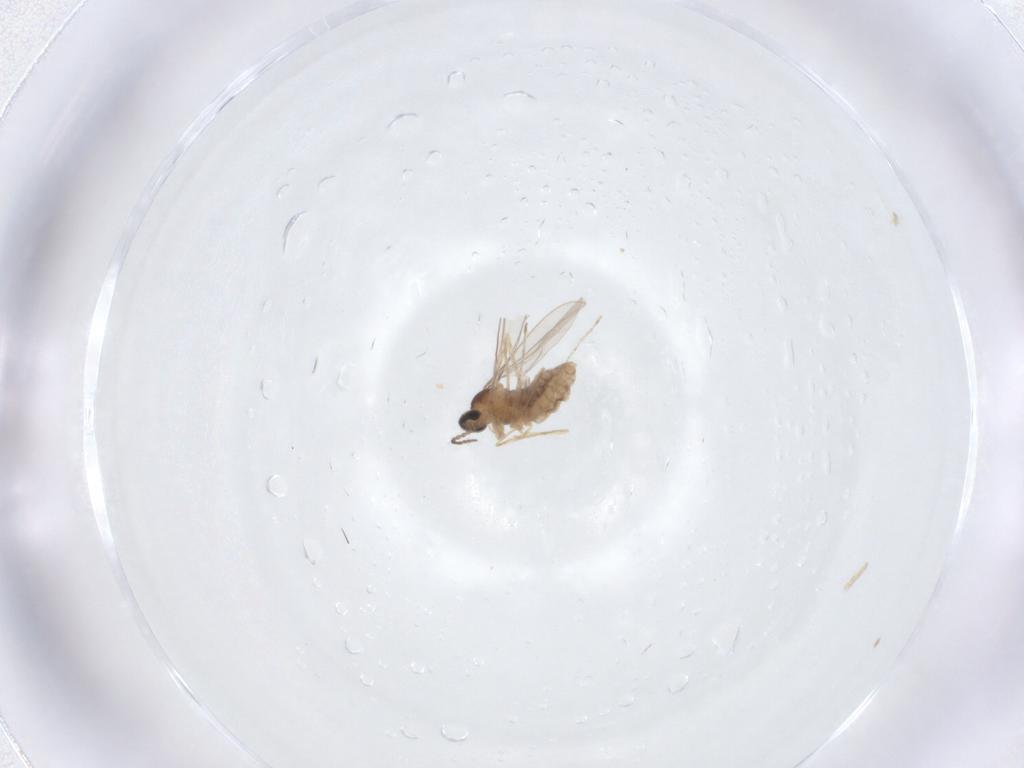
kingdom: Animalia
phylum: Arthropoda
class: Insecta
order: Diptera
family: Cecidomyiidae
